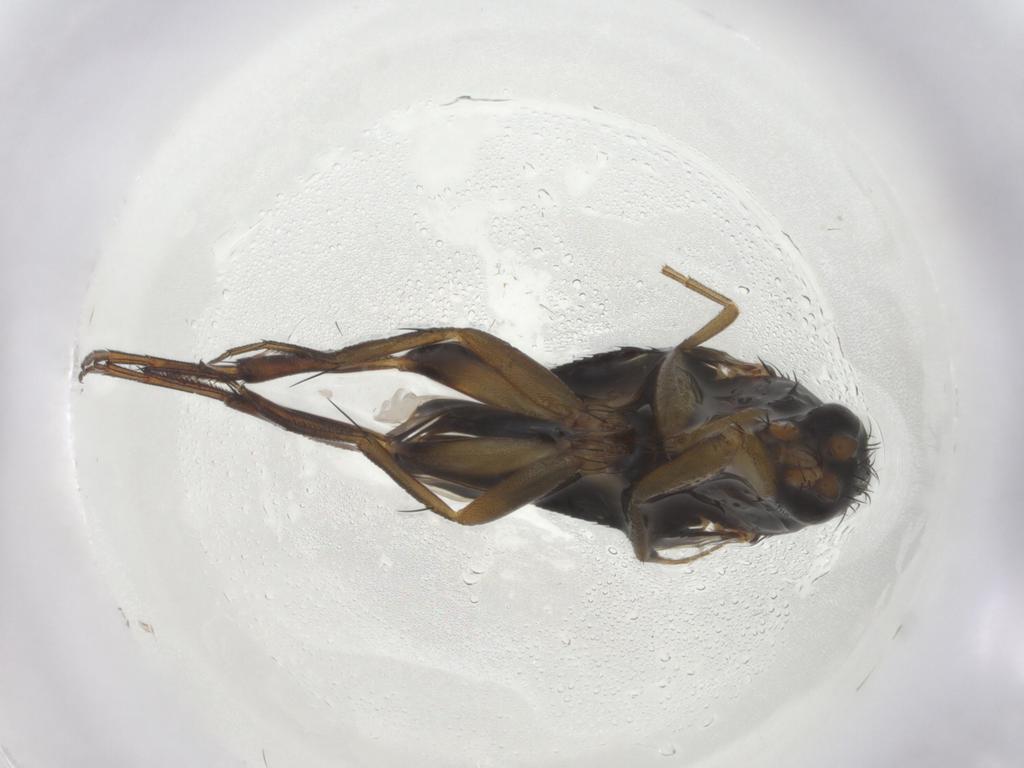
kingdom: Animalia
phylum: Arthropoda
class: Insecta
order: Diptera
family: Phoridae
